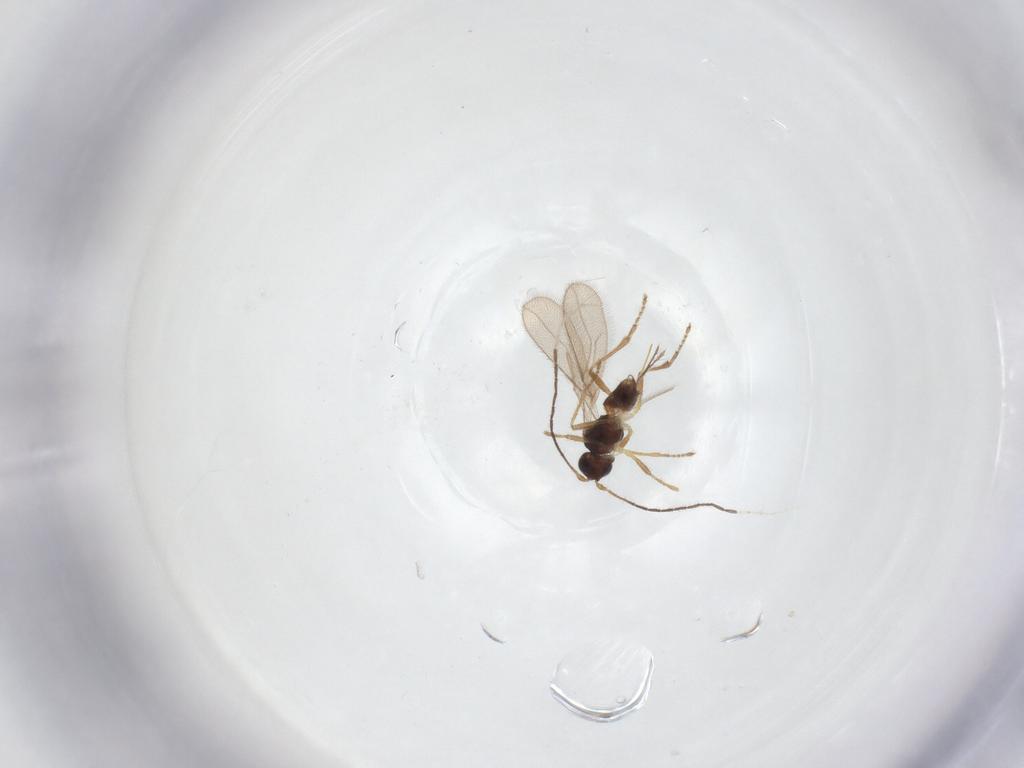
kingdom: Animalia
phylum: Arthropoda
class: Insecta
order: Hymenoptera
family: Braconidae
